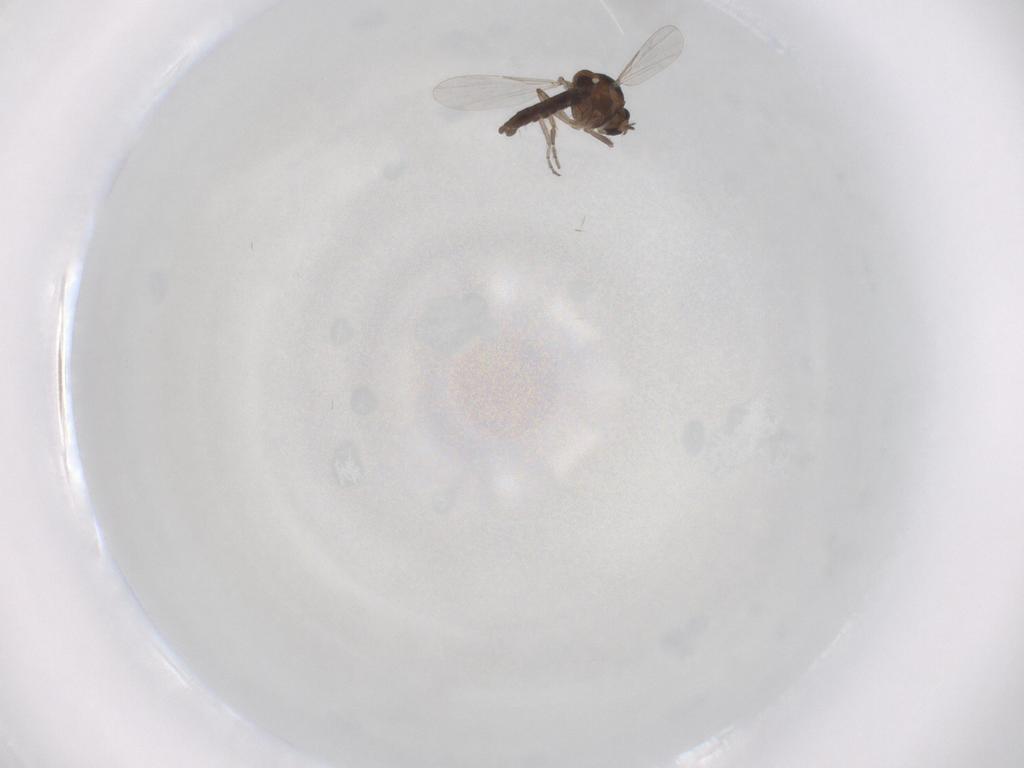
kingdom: Animalia
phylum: Arthropoda
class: Insecta
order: Diptera
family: Ceratopogonidae
